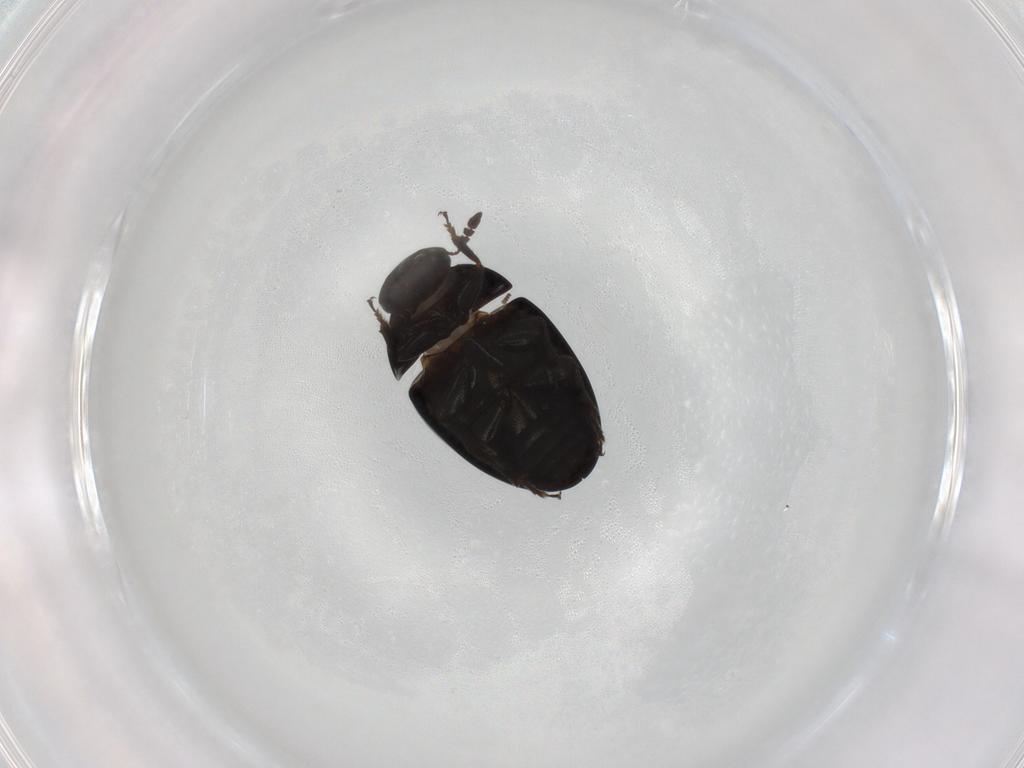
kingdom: Animalia
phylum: Arthropoda
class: Insecta
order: Coleoptera
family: Phalacridae
